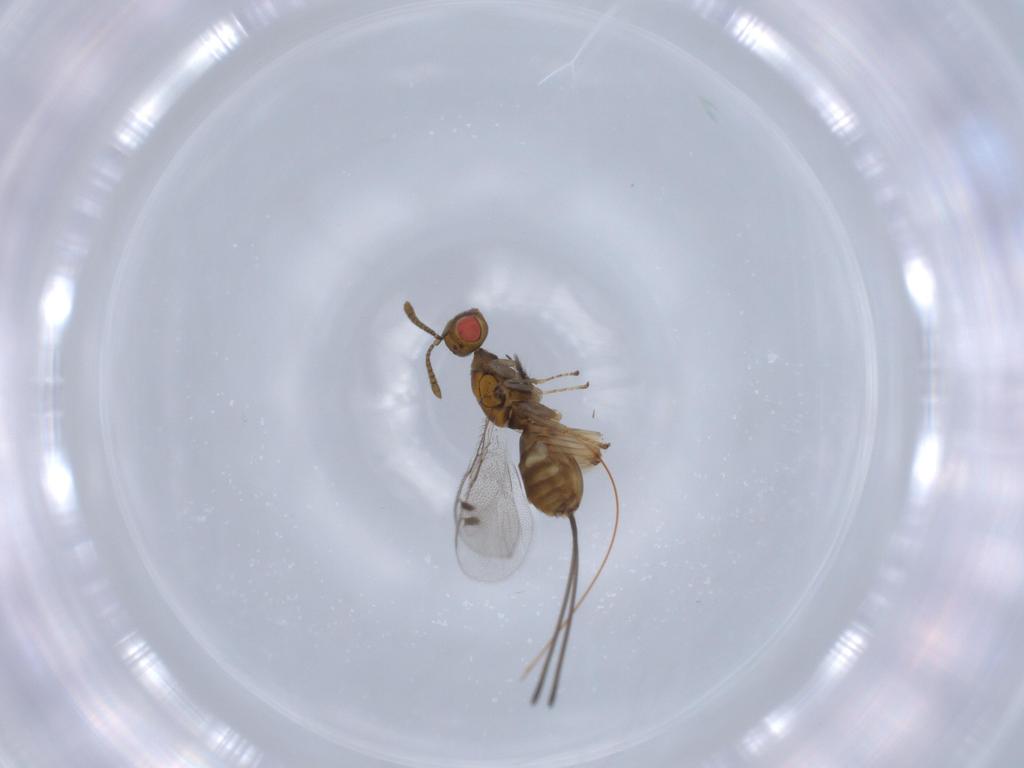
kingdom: Animalia
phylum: Arthropoda
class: Insecta
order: Hymenoptera
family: Megastigmidae
